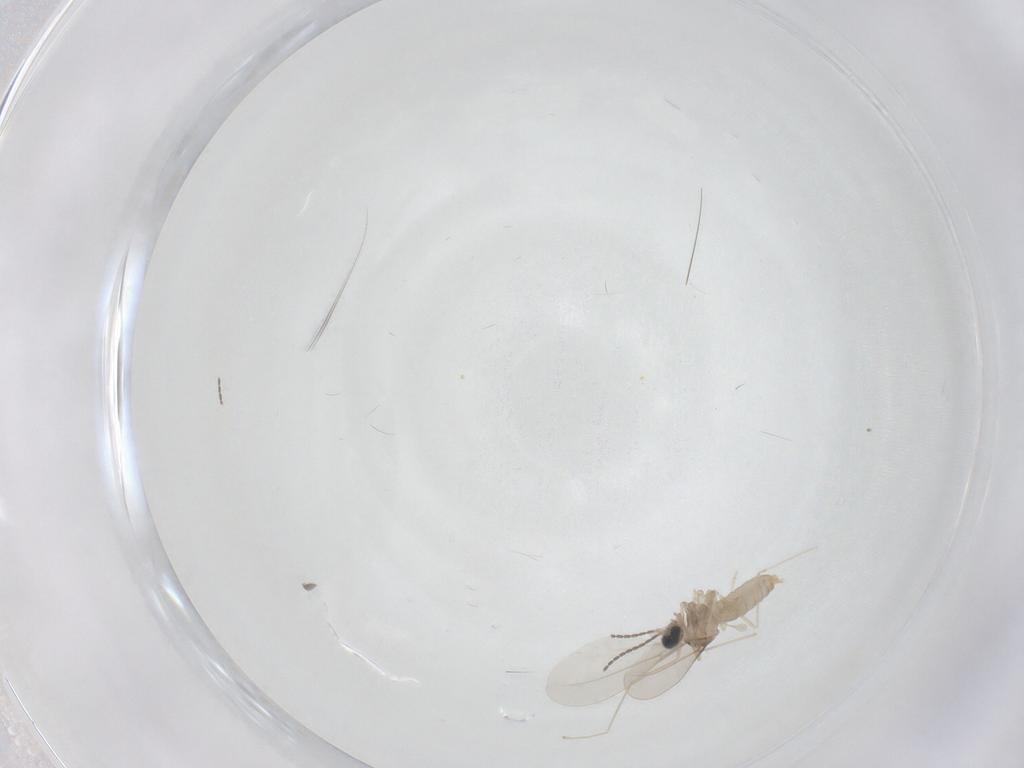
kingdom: Animalia
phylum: Arthropoda
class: Insecta
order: Diptera
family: Cecidomyiidae
